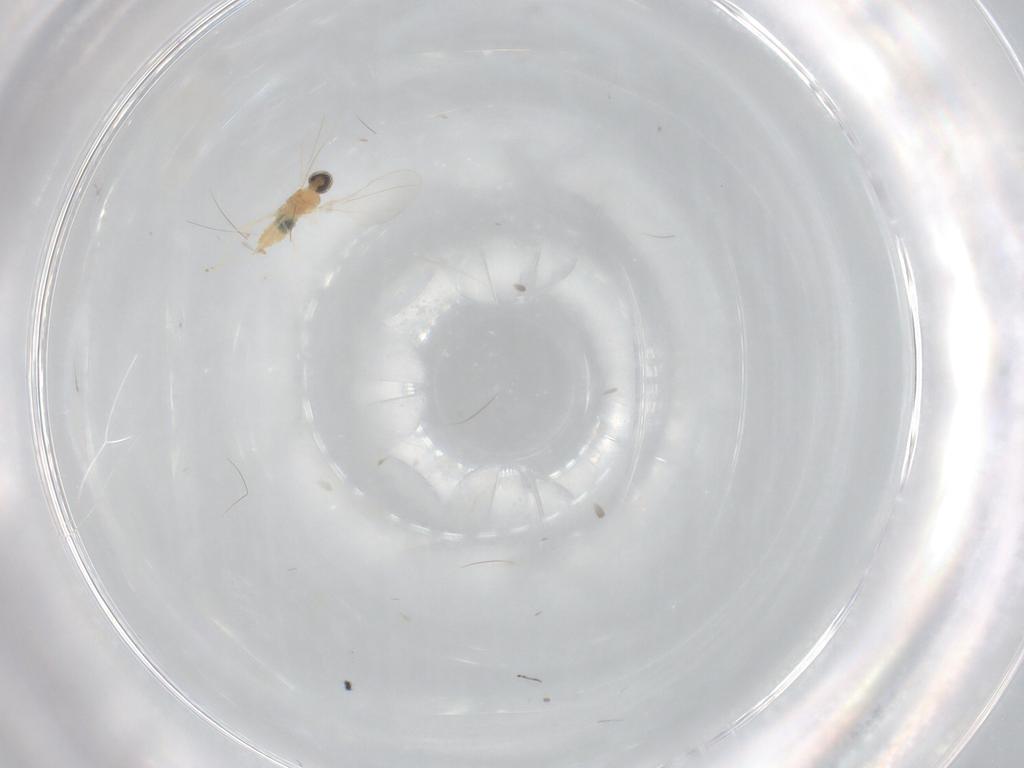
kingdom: Animalia
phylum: Arthropoda
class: Insecta
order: Diptera
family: Cecidomyiidae
